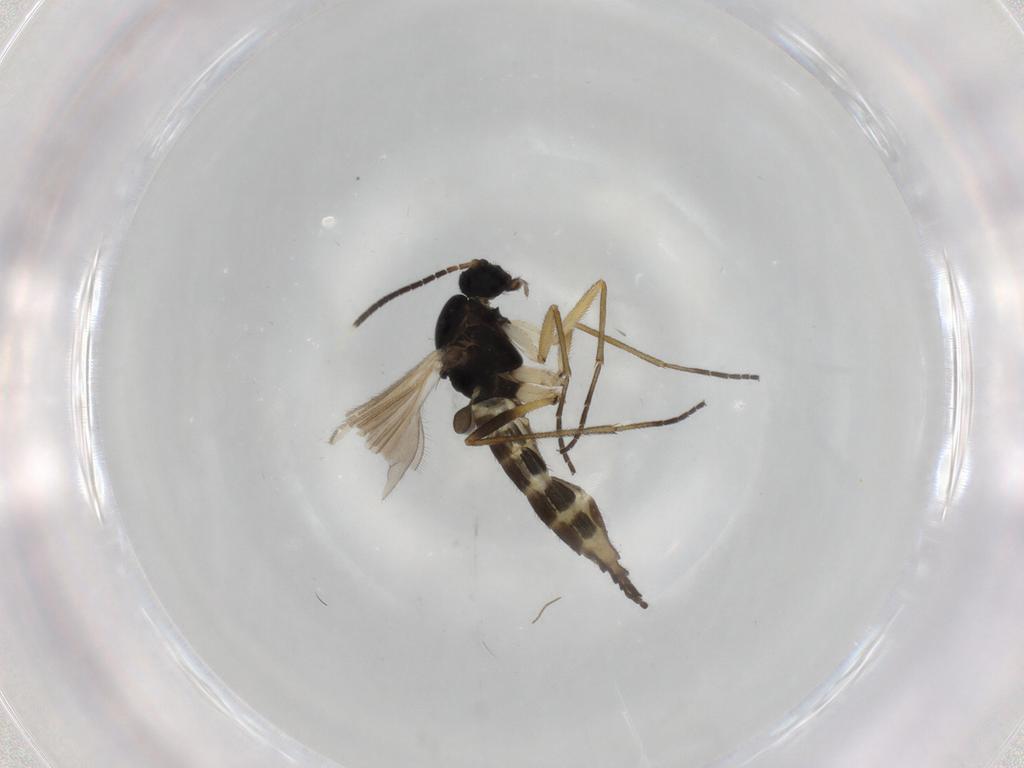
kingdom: Animalia
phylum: Arthropoda
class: Insecta
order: Diptera
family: Sciaridae
